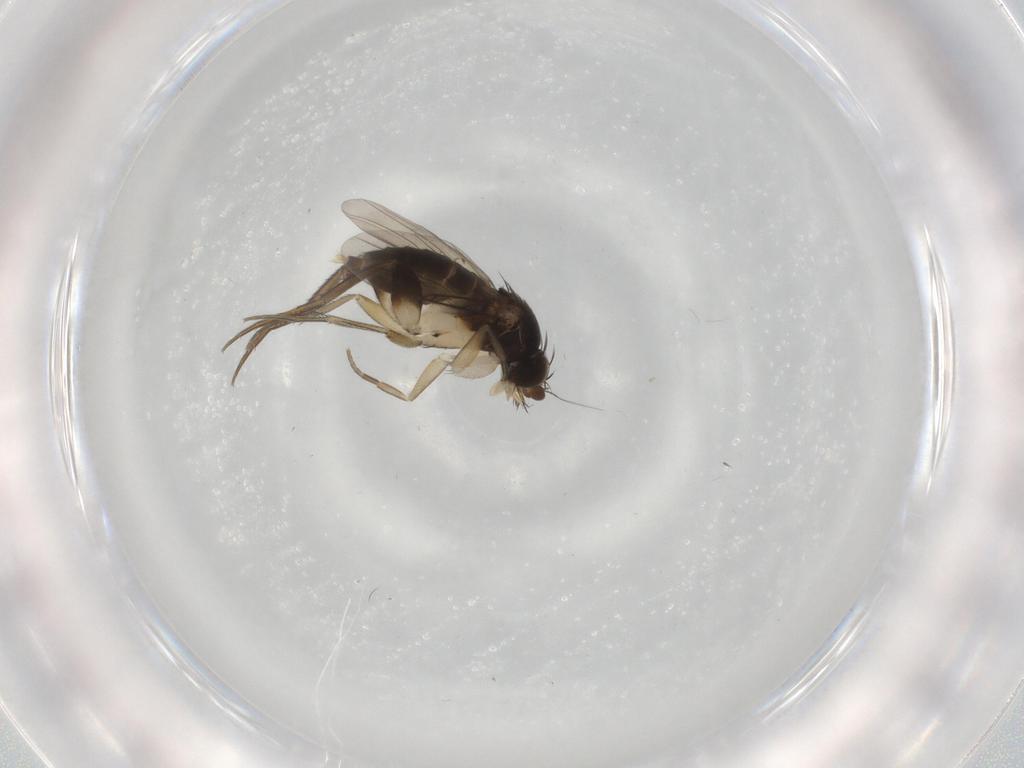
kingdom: Animalia
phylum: Arthropoda
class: Insecta
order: Diptera
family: Phoridae
